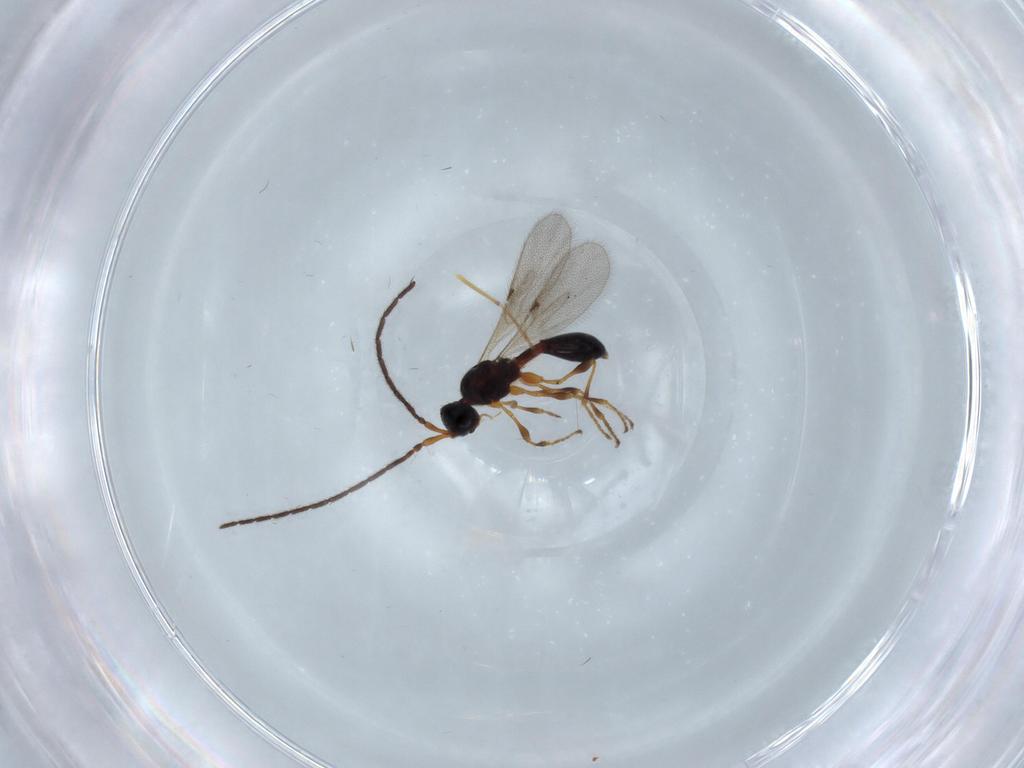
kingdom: Animalia
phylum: Arthropoda
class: Insecta
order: Hymenoptera
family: Diapriidae
